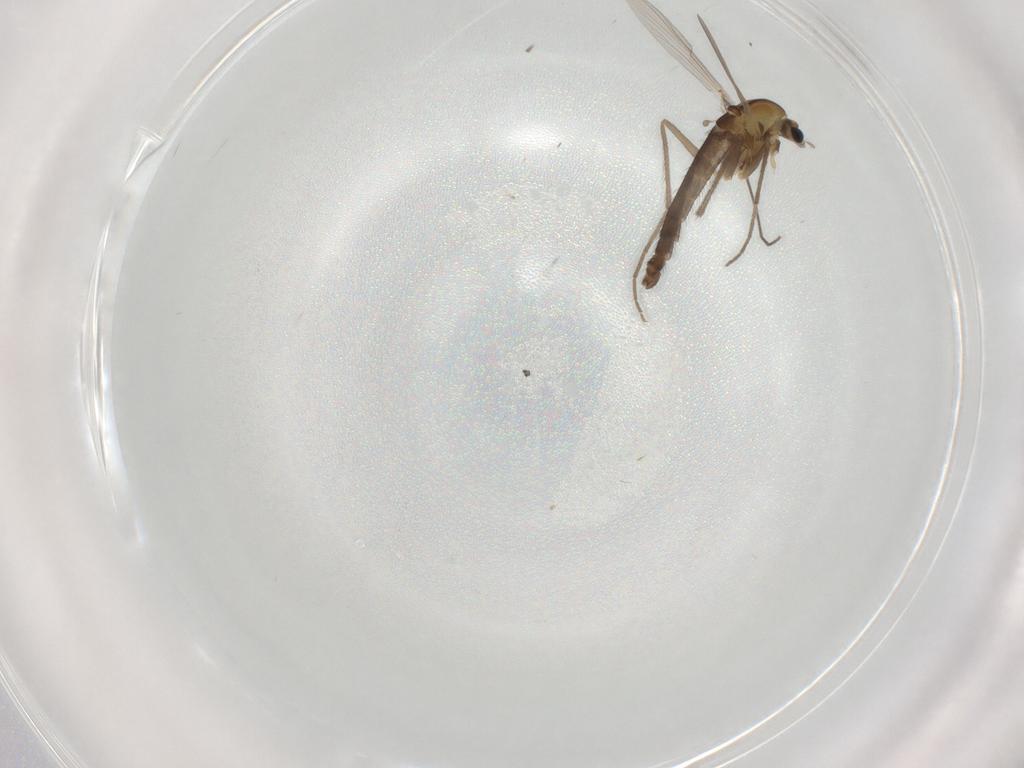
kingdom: Animalia
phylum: Arthropoda
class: Insecta
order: Diptera
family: Chironomidae
